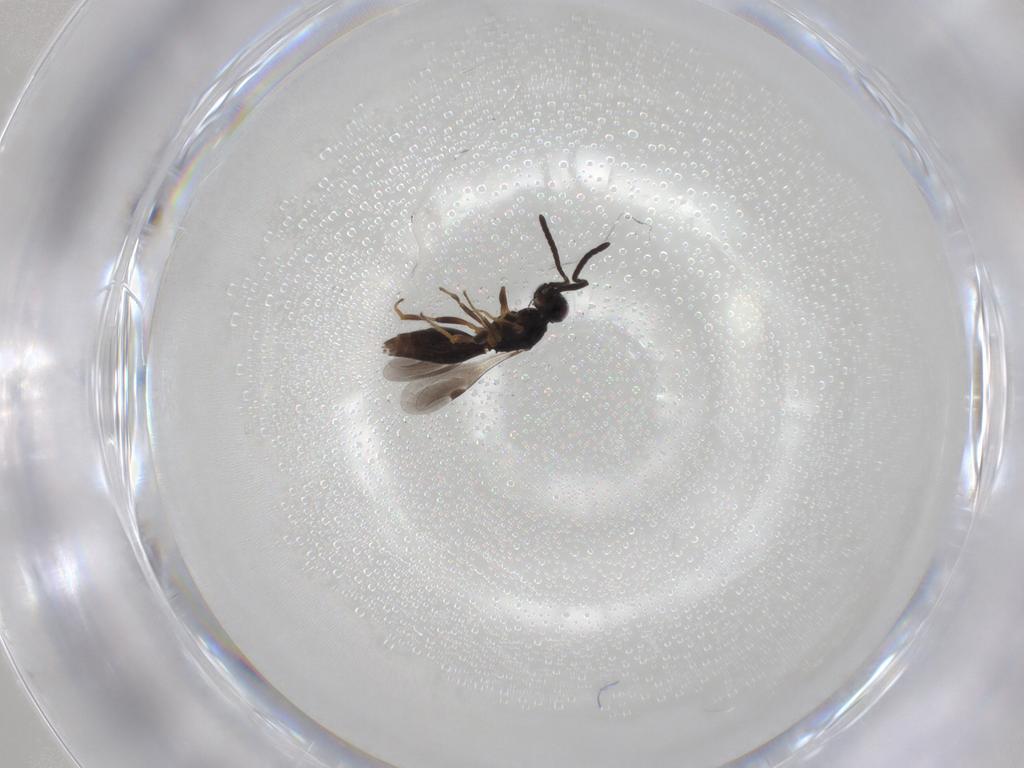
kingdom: Animalia
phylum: Arthropoda
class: Insecta
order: Hymenoptera
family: Megaspilidae
